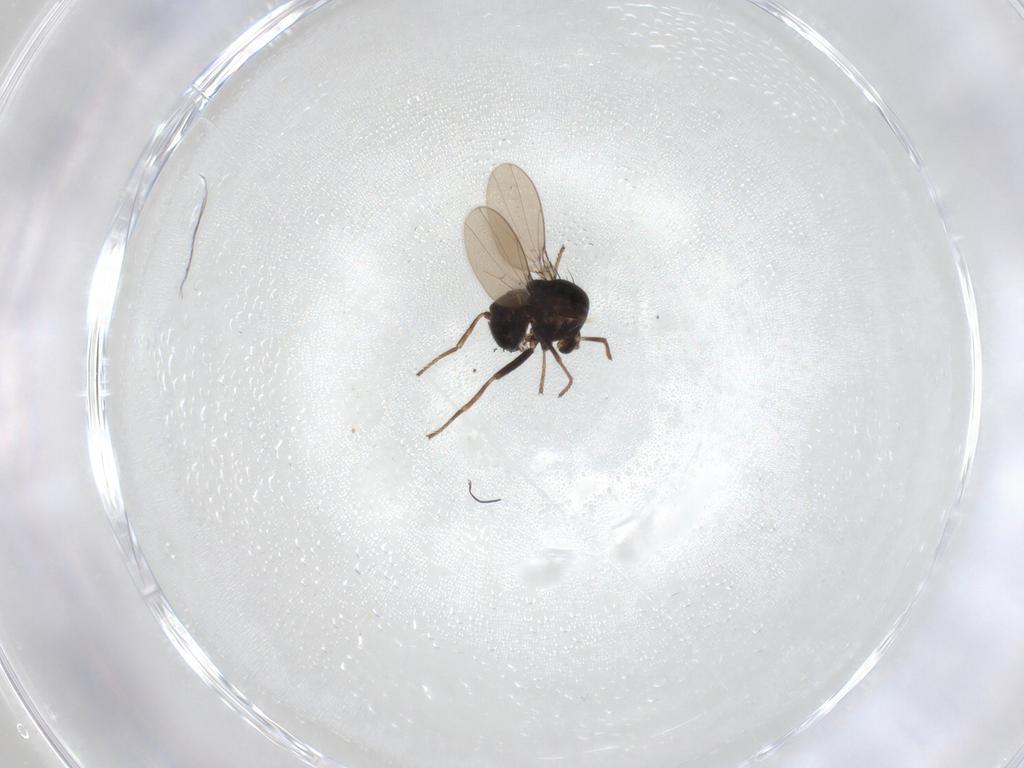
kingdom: Animalia
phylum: Arthropoda
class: Insecta
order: Diptera
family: Ephydridae
